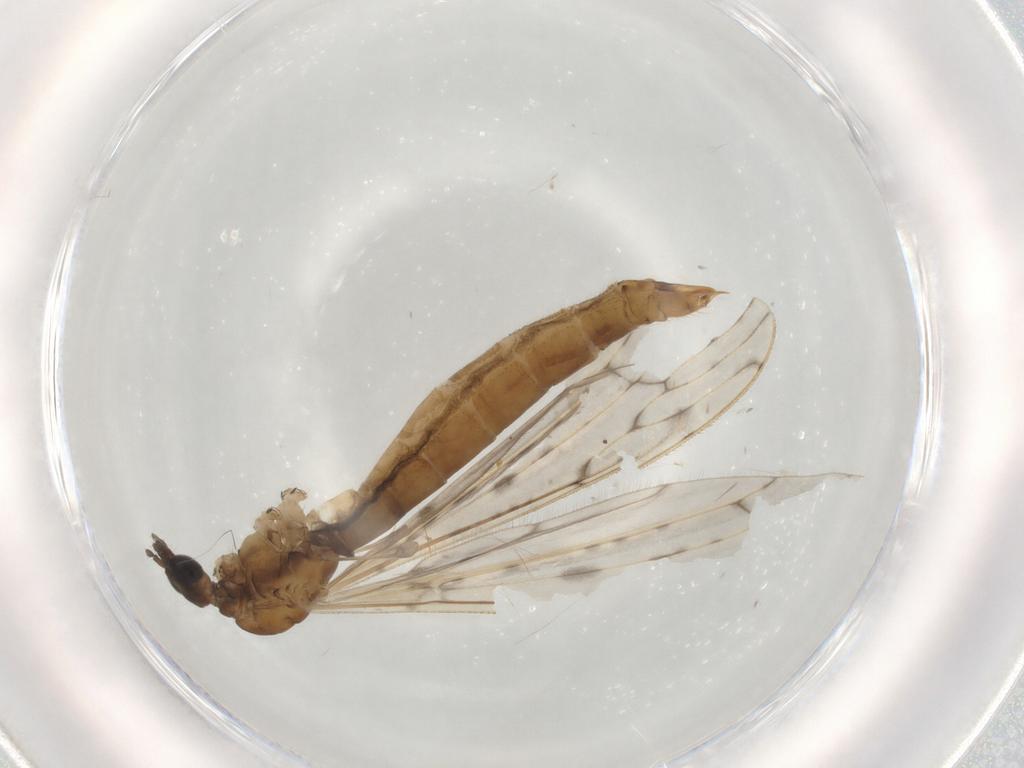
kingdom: Animalia
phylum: Arthropoda
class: Insecta
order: Diptera
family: Limoniidae
